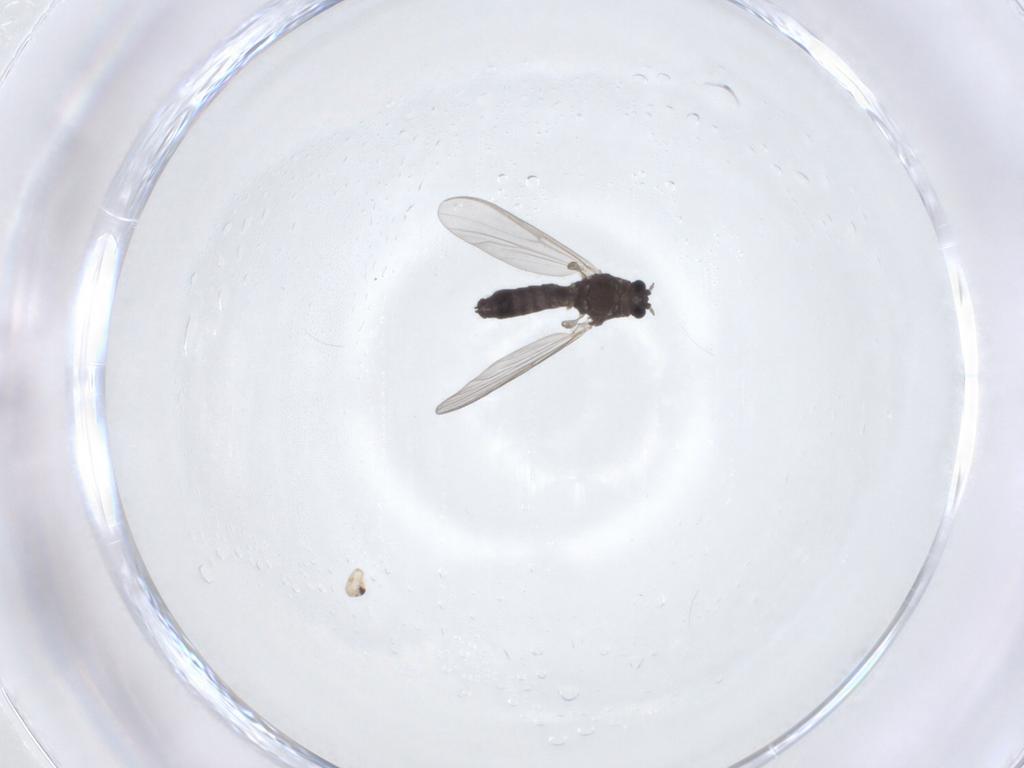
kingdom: Animalia
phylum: Arthropoda
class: Insecta
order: Diptera
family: Chironomidae
